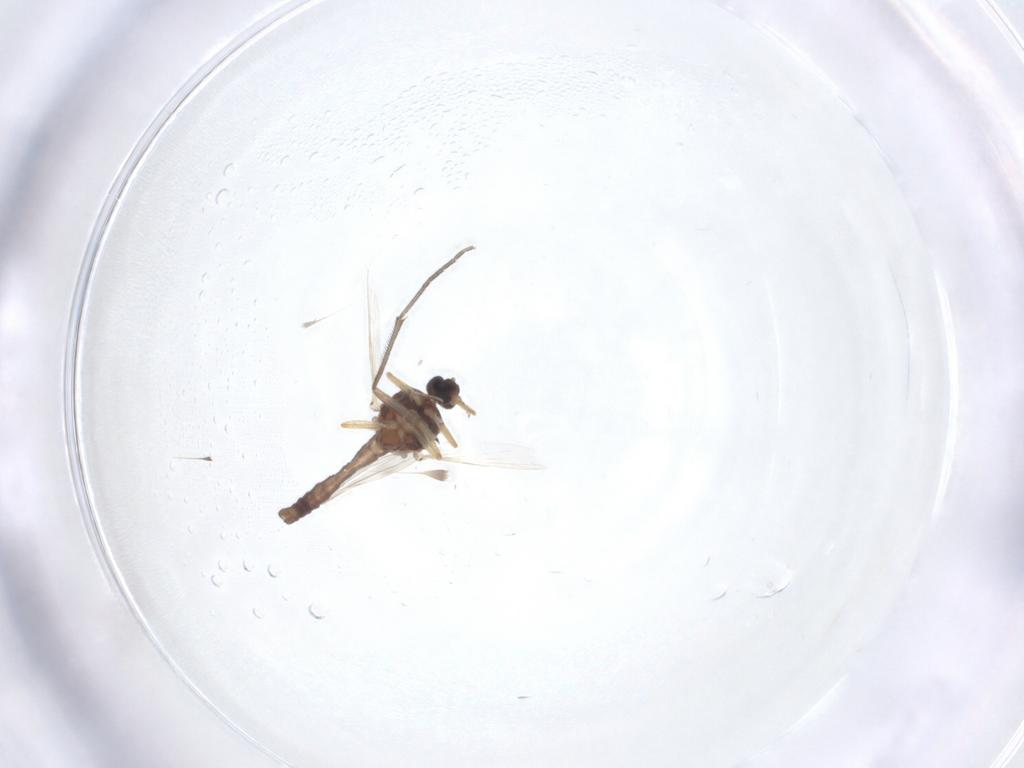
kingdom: Animalia
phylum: Arthropoda
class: Insecta
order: Diptera
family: Ceratopogonidae
